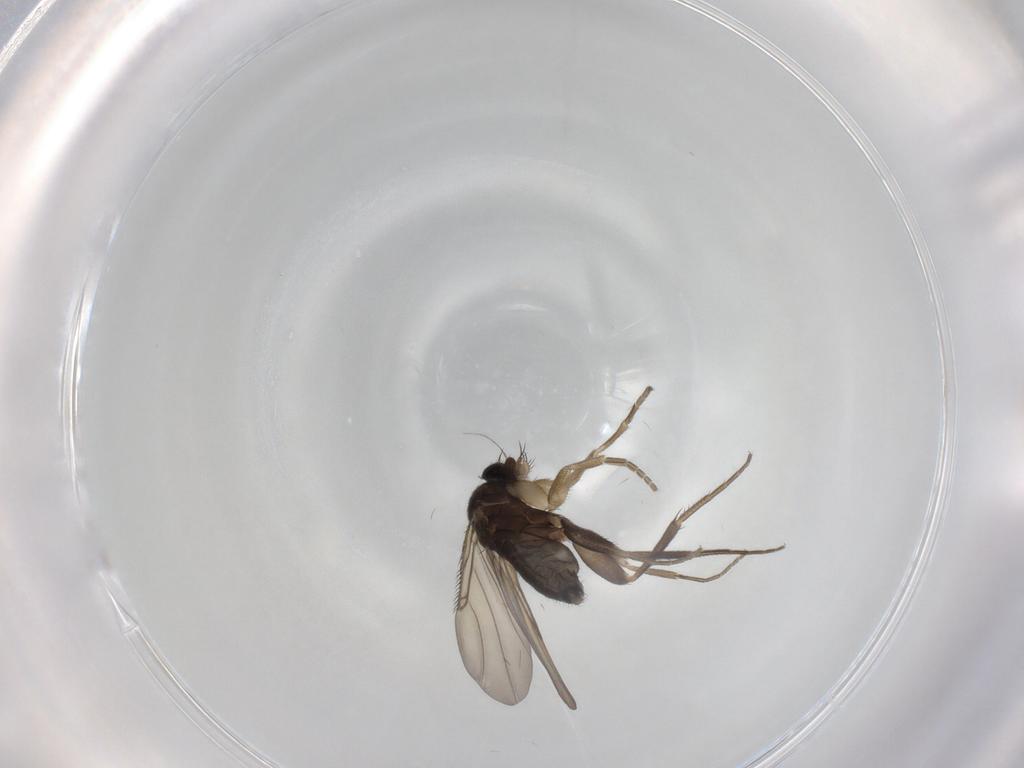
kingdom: Animalia
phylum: Arthropoda
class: Insecta
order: Diptera
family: Phoridae
